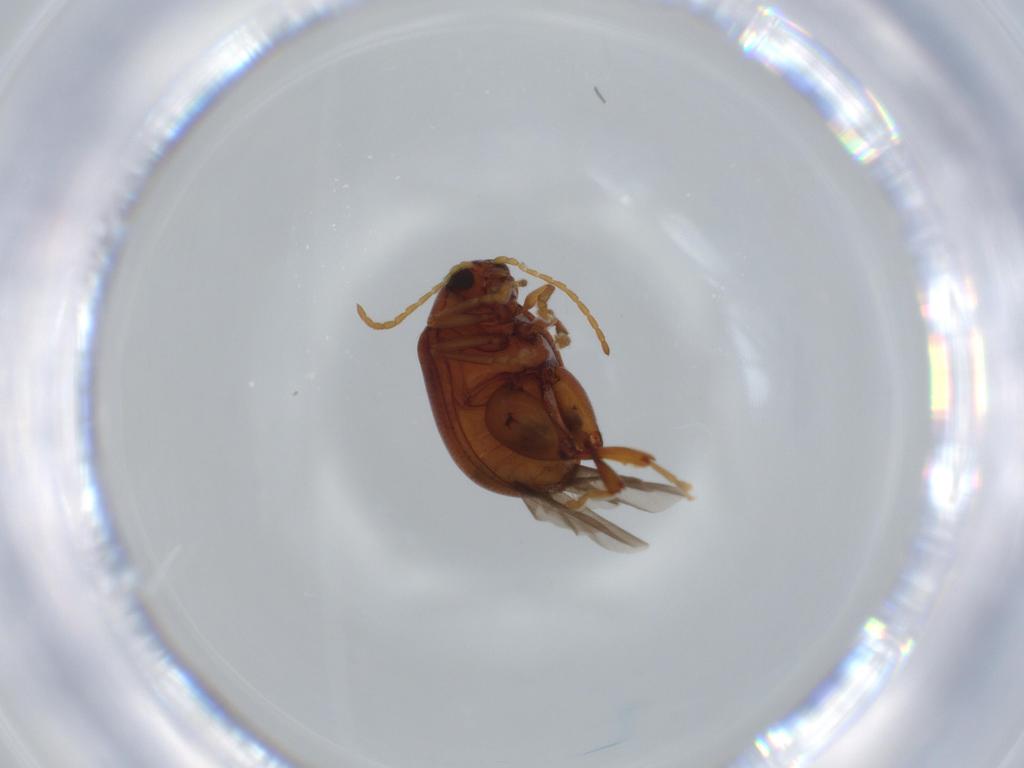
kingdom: Animalia
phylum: Arthropoda
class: Insecta
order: Coleoptera
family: Chrysomelidae
